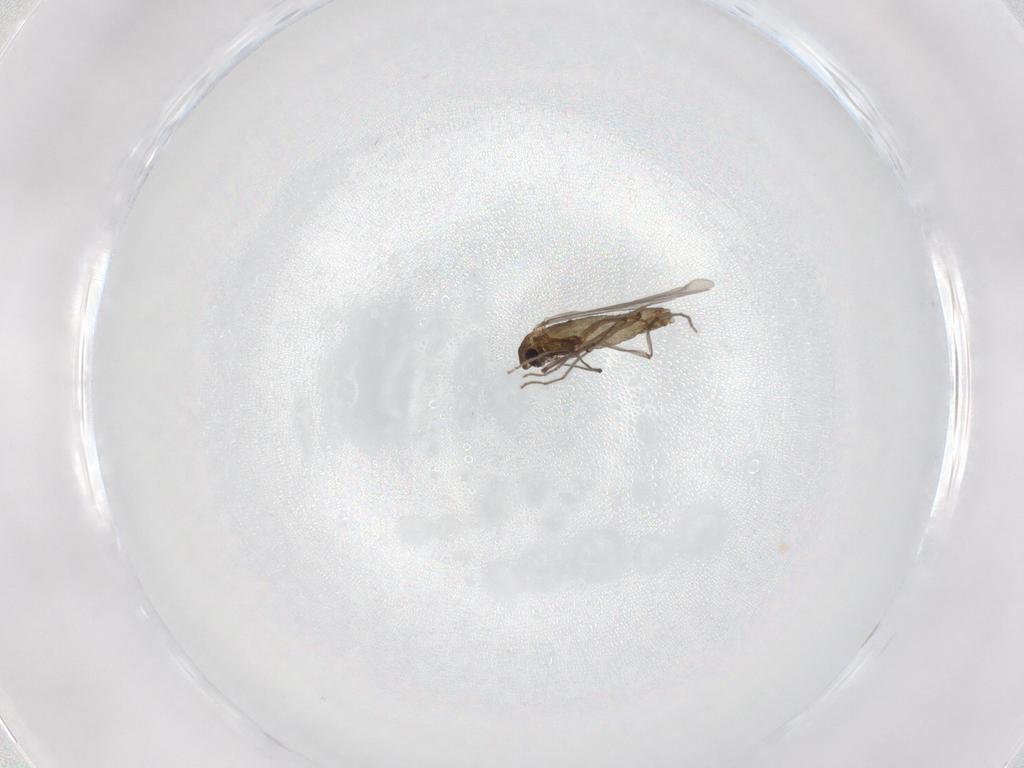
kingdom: Animalia
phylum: Arthropoda
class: Insecta
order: Diptera
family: Chironomidae
